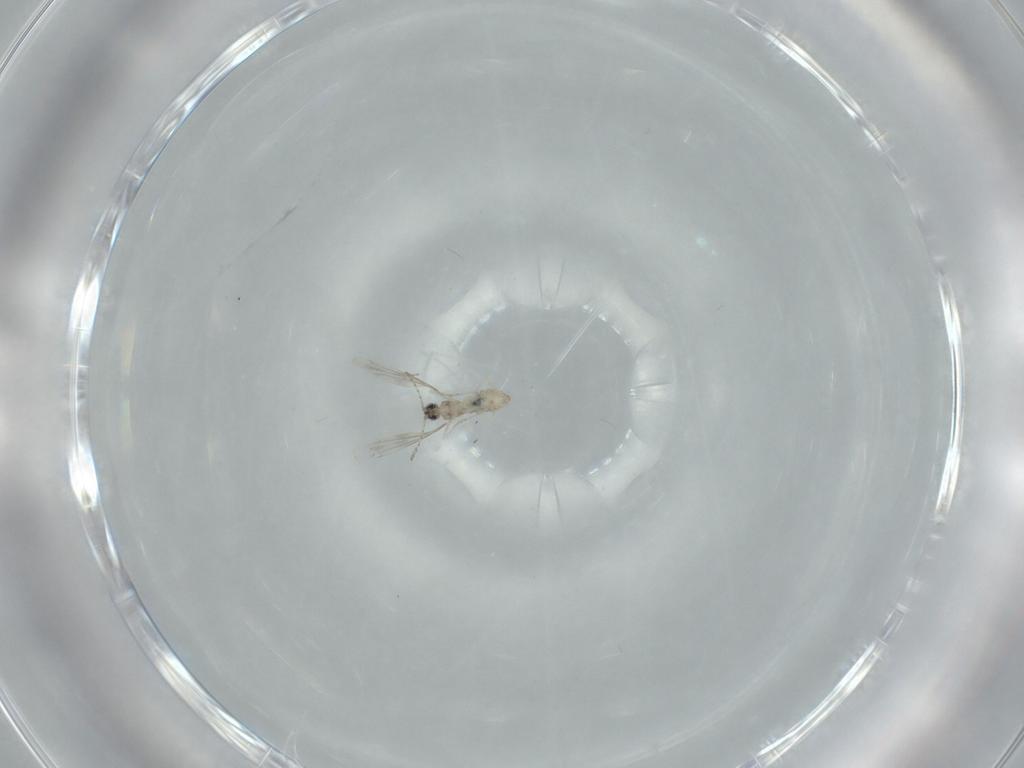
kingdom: Animalia
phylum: Arthropoda
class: Insecta
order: Diptera
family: Cecidomyiidae
